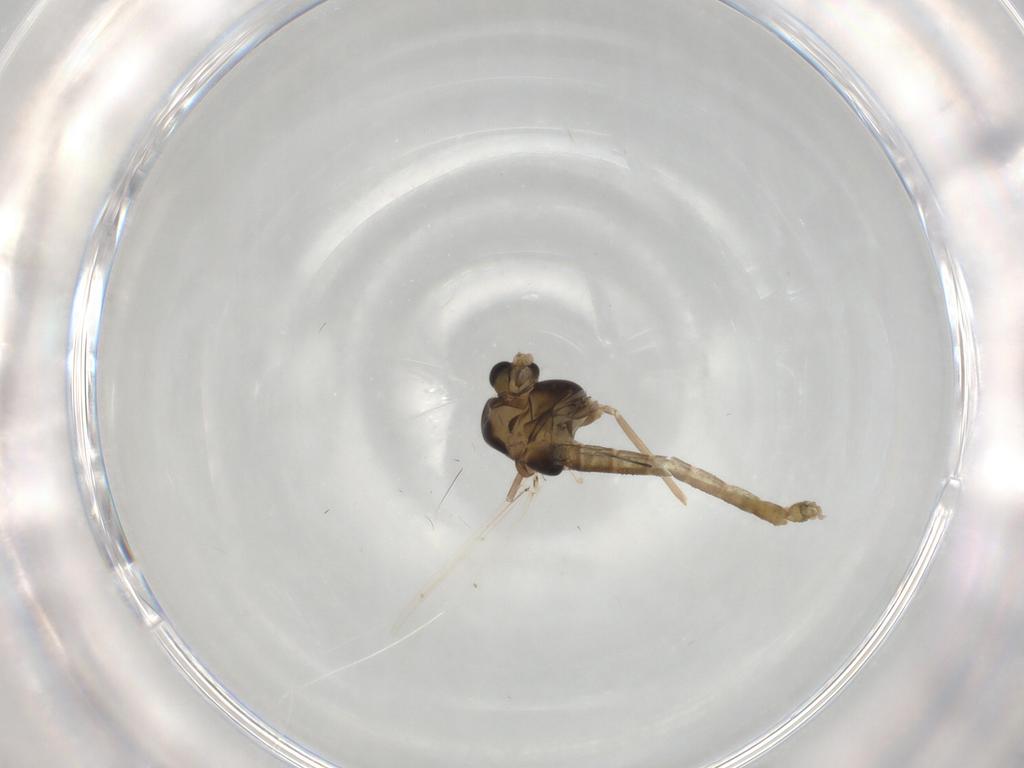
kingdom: Animalia
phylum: Arthropoda
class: Insecta
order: Diptera
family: Chironomidae
